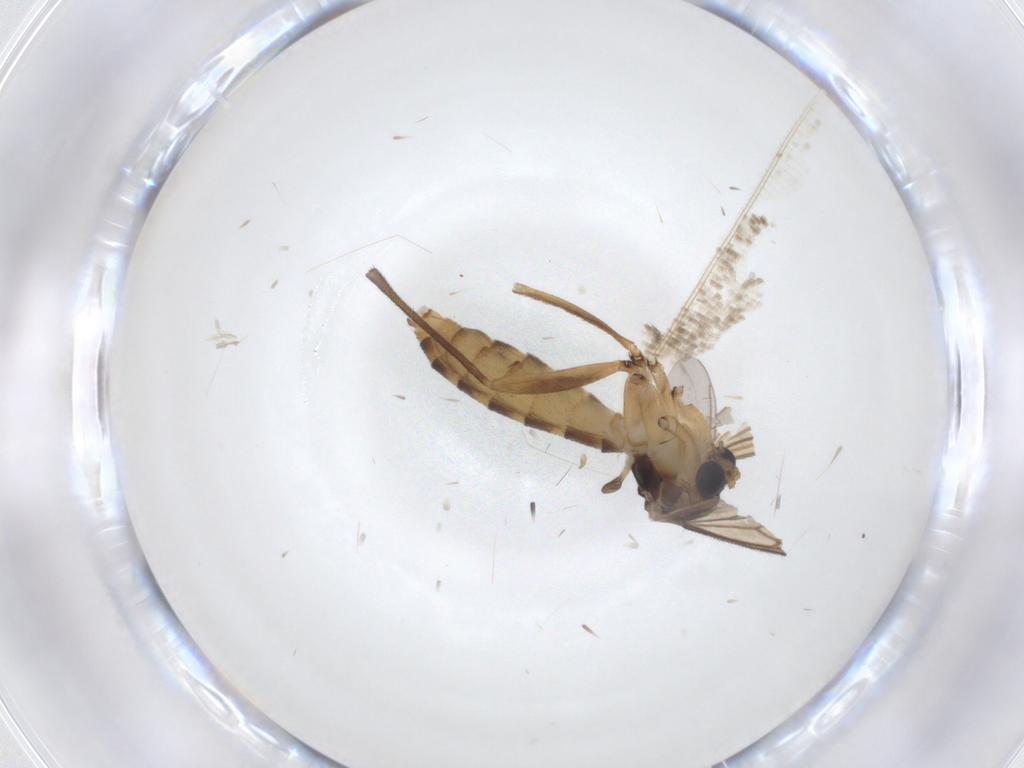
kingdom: Animalia
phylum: Arthropoda
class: Insecta
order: Diptera
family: Mycetophilidae
